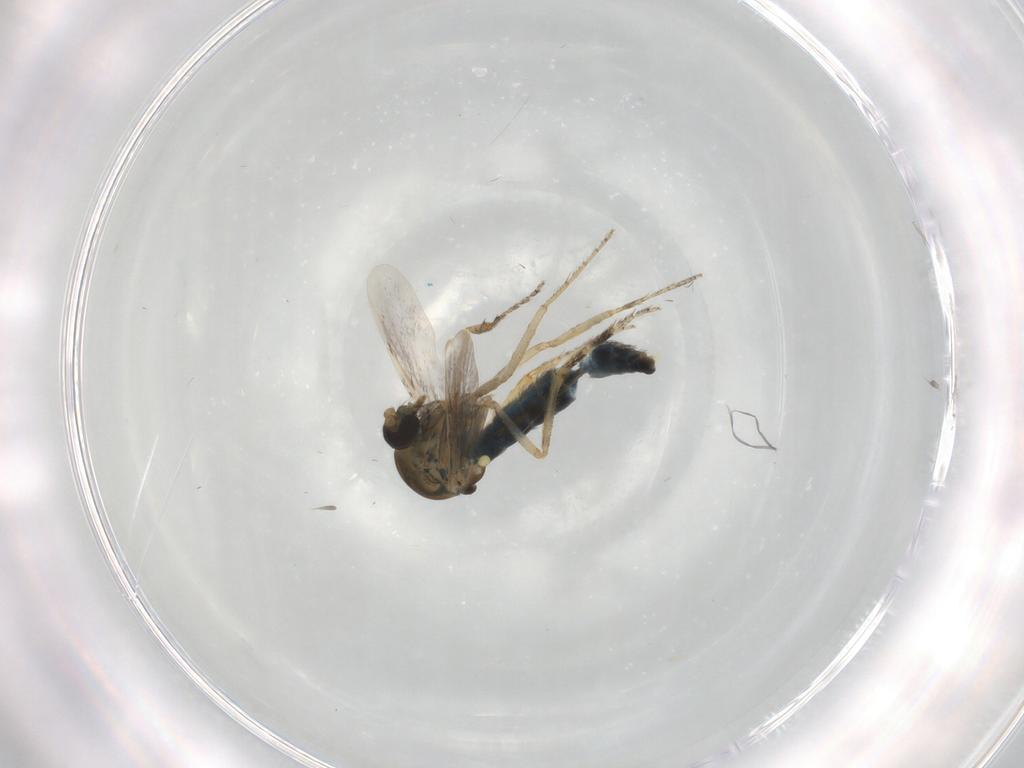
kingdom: Animalia
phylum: Arthropoda
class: Insecta
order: Diptera
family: Ceratopogonidae
